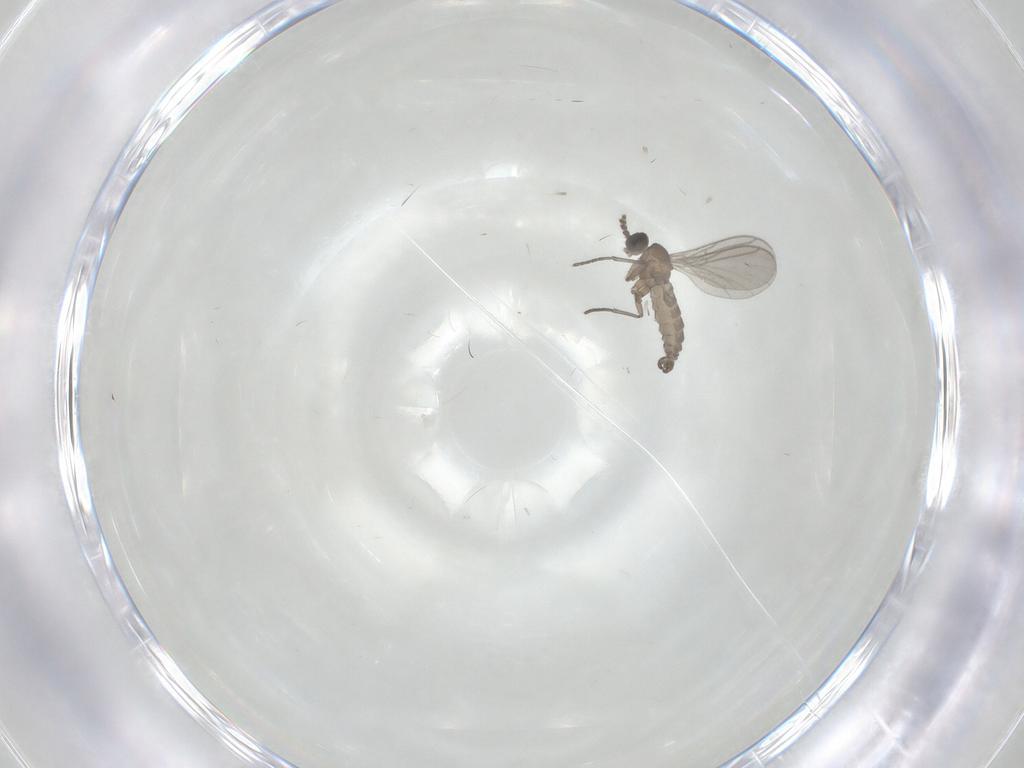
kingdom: Animalia
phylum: Arthropoda
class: Insecta
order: Diptera
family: Phoridae
